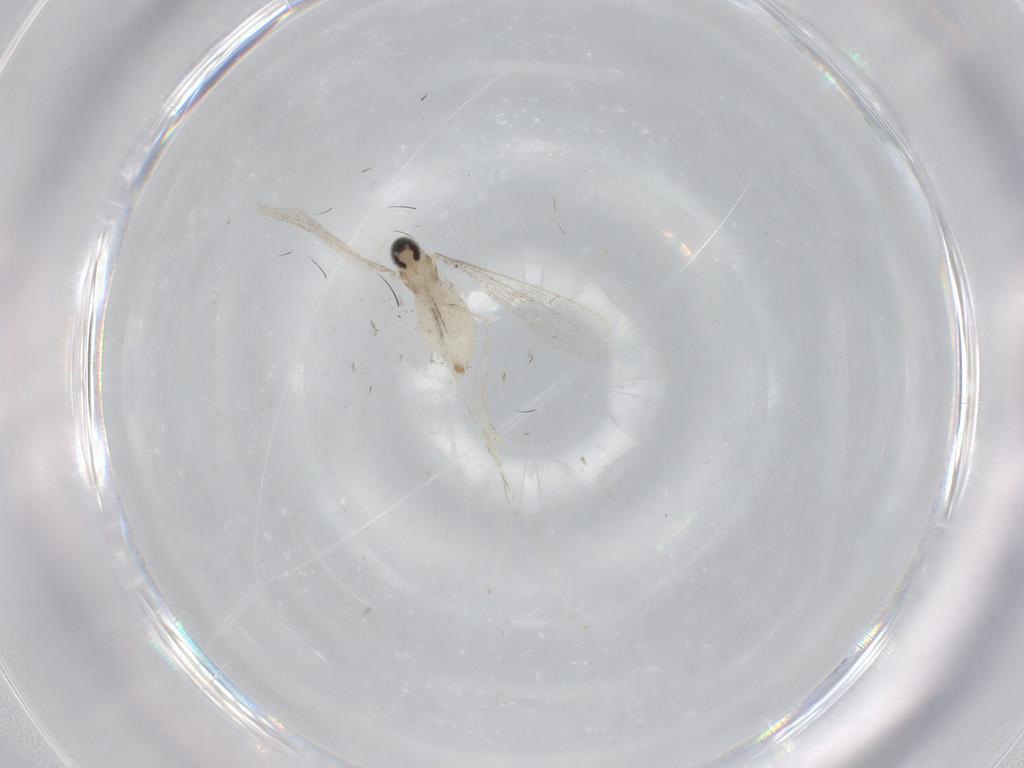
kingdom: Animalia
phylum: Arthropoda
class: Insecta
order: Diptera
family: Cecidomyiidae
